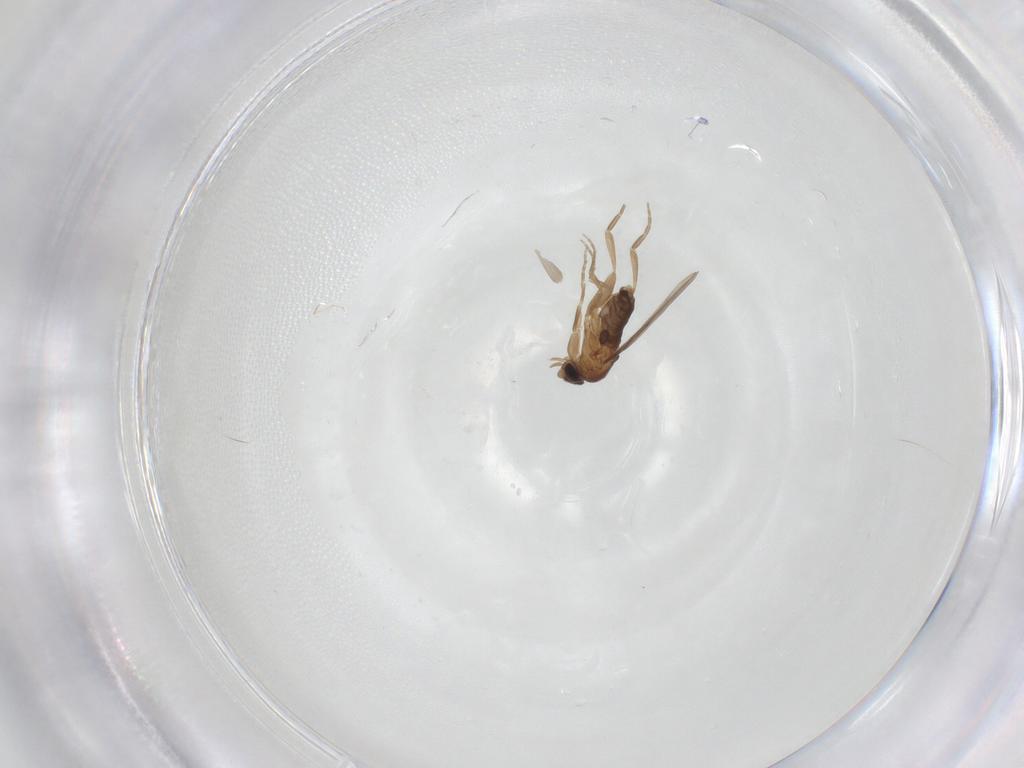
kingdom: Animalia
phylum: Arthropoda
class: Insecta
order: Diptera
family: Phoridae
